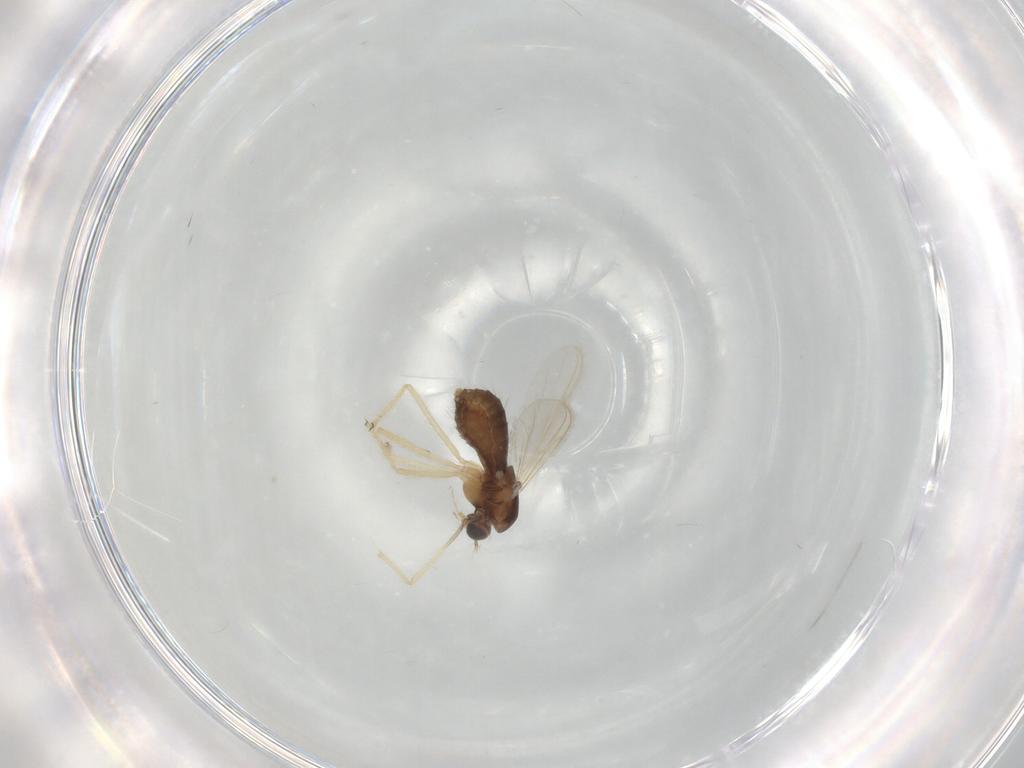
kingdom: Animalia
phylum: Arthropoda
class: Insecta
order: Diptera
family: Chironomidae
